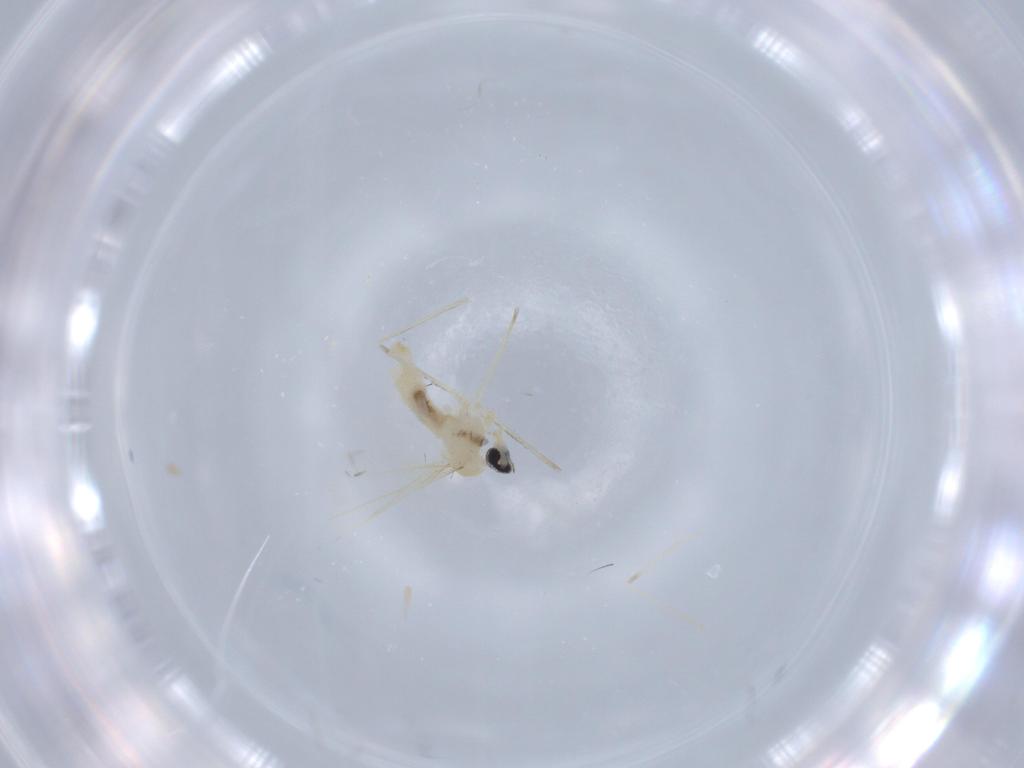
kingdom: Animalia
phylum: Arthropoda
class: Insecta
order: Diptera
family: Cecidomyiidae
